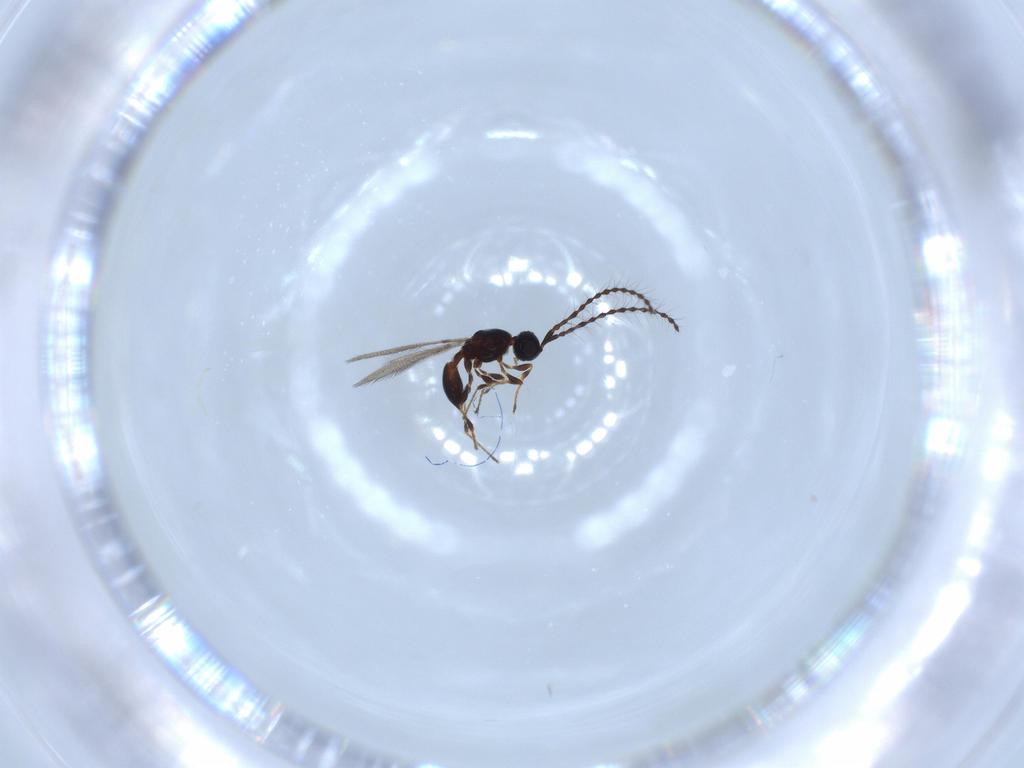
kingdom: Animalia
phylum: Arthropoda
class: Insecta
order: Hymenoptera
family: Diapriidae
